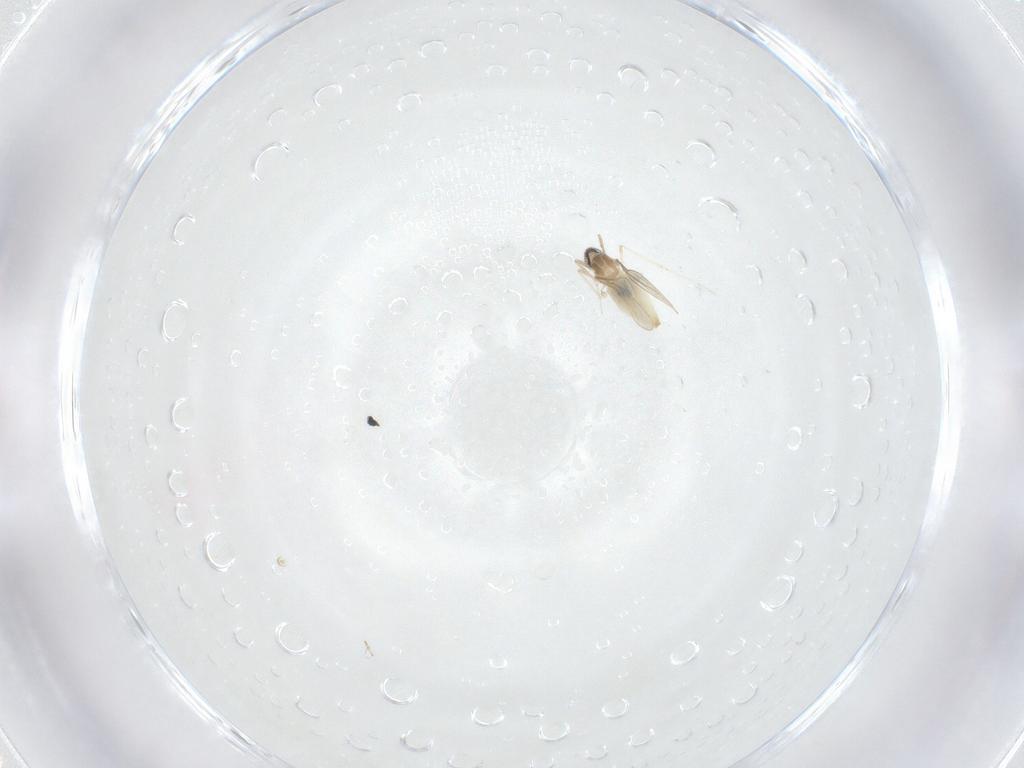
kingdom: Animalia
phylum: Arthropoda
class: Insecta
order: Diptera
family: Cecidomyiidae
